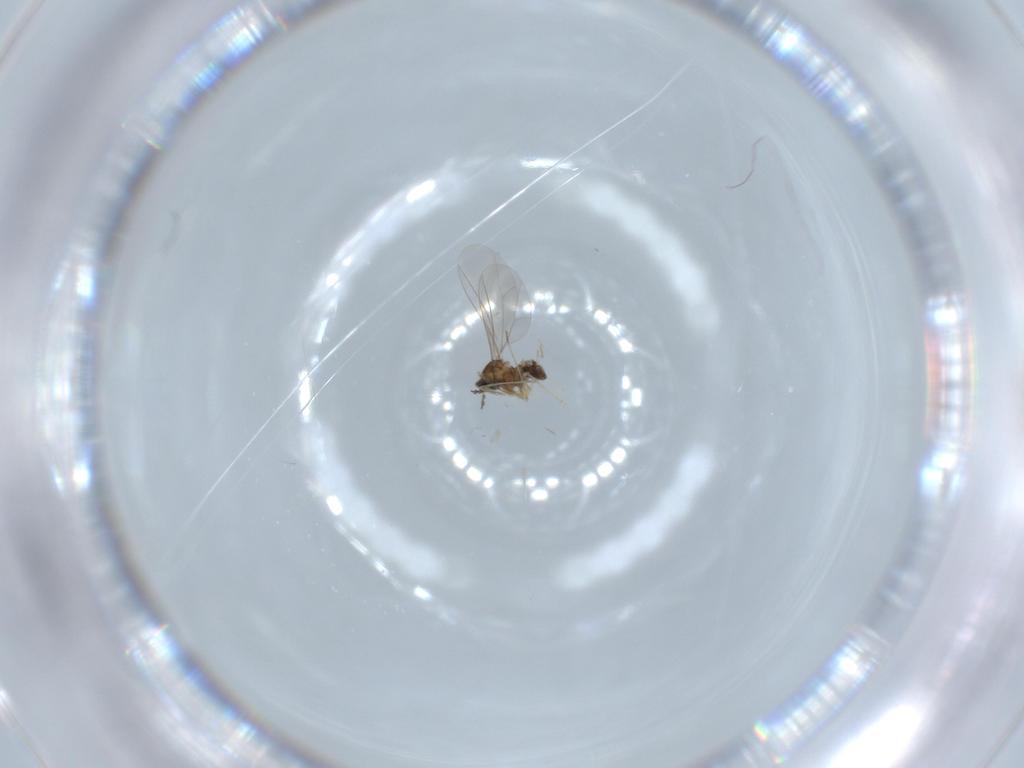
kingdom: Animalia
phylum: Arthropoda
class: Insecta
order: Diptera
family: Cecidomyiidae
